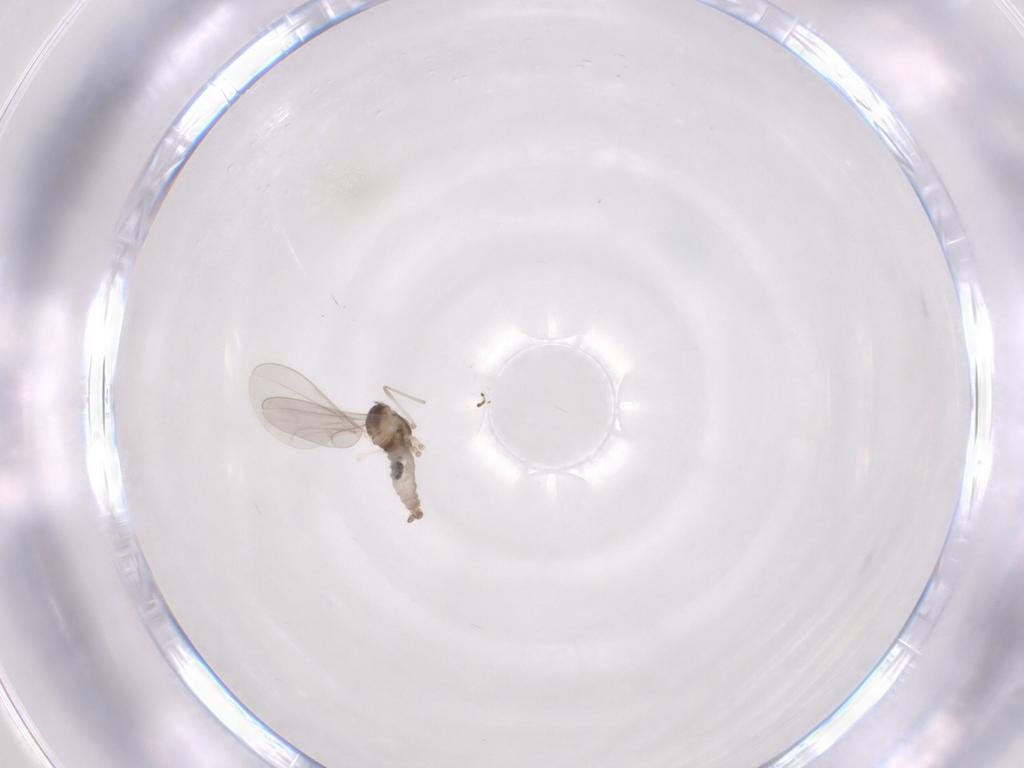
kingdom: Animalia
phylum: Arthropoda
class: Insecta
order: Diptera
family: Cecidomyiidae
